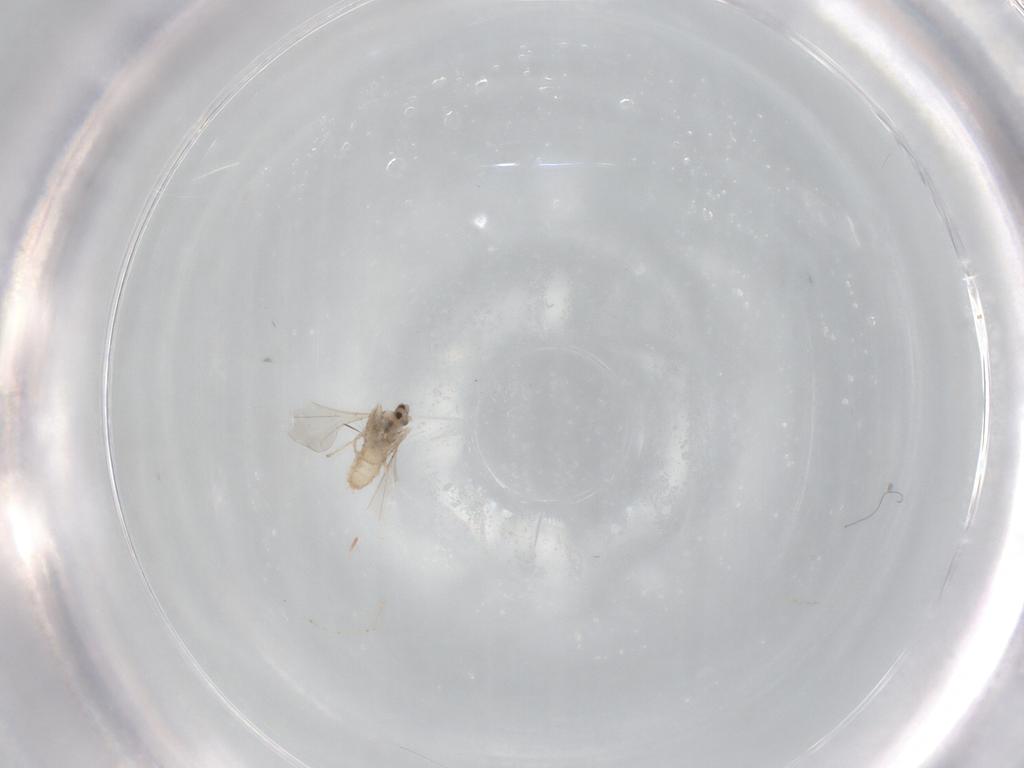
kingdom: Animalia
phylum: Arthropoda
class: Insecta
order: Diptera
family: Cecidomyiidae
